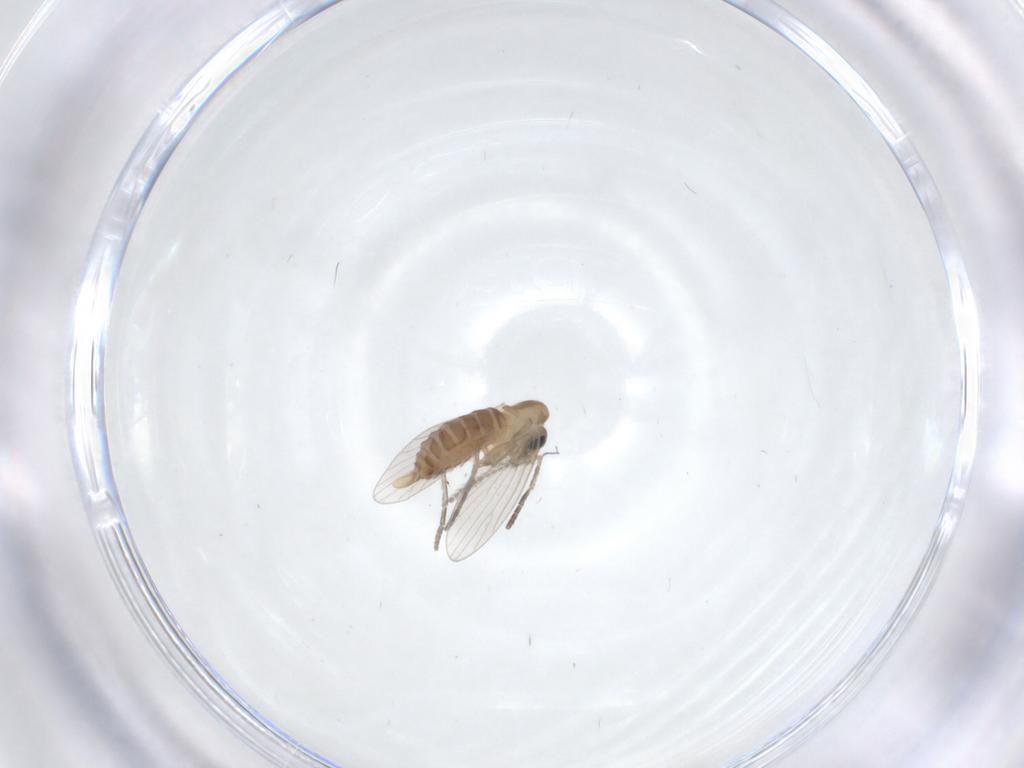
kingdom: Animalia
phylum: Arthropoda
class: Insecta
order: Diptera
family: Psychodidae
